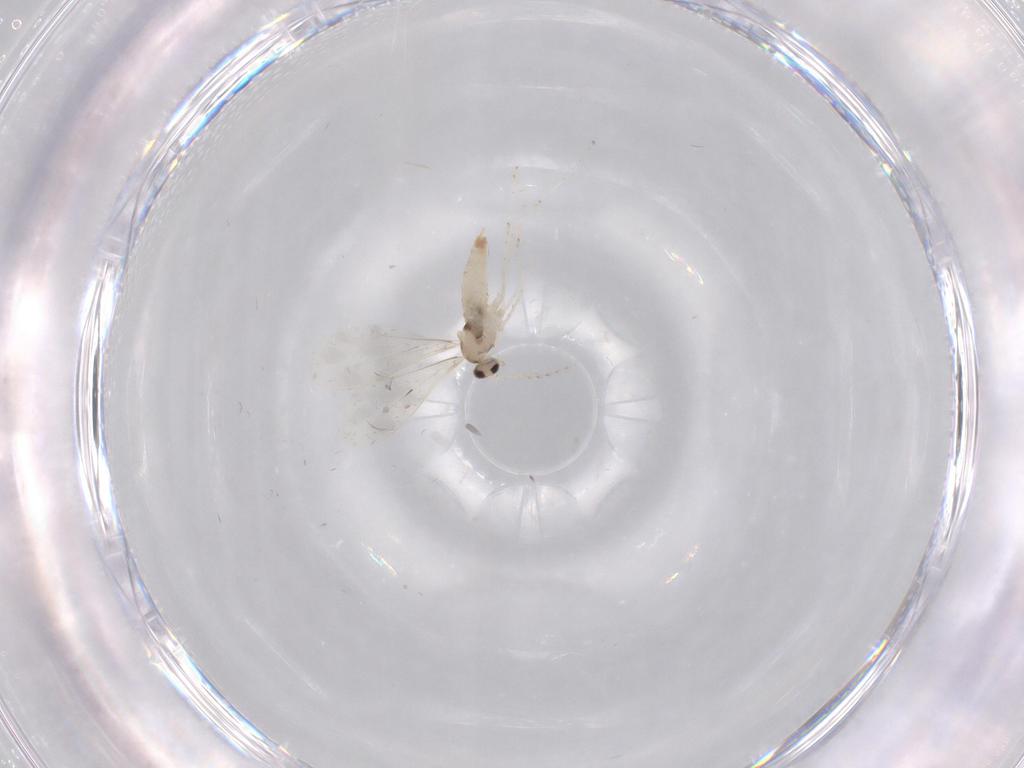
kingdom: Animalia
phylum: Arthropoda
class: Insecta
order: Diptera
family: Cecidomyiidae
